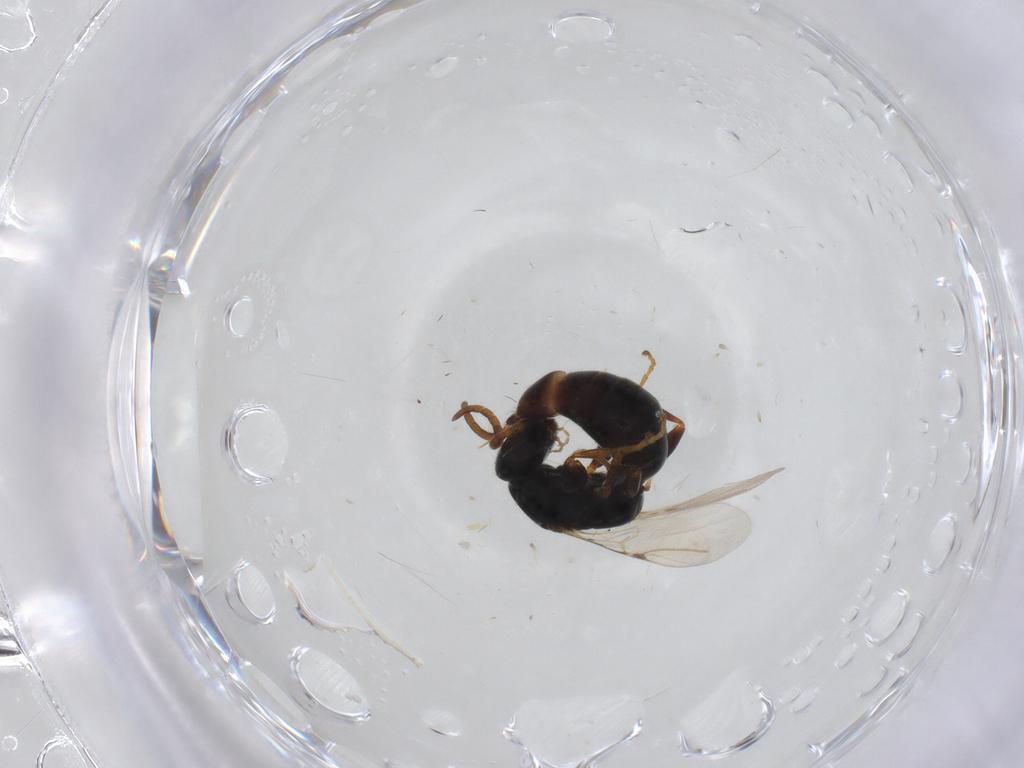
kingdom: Animalia
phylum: Arthropoda
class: Insecta
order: Hymenoptera
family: Bethylidae
